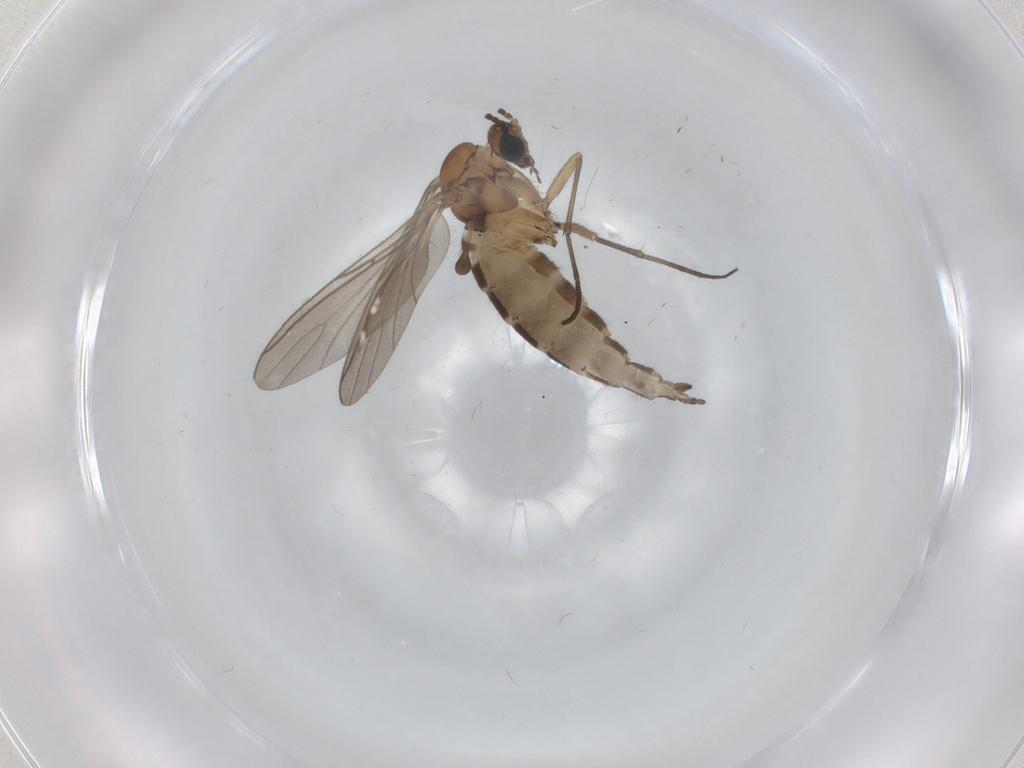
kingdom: Animalia
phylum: Arthropoda
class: Insecta
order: Diptera
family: Sciaridae
